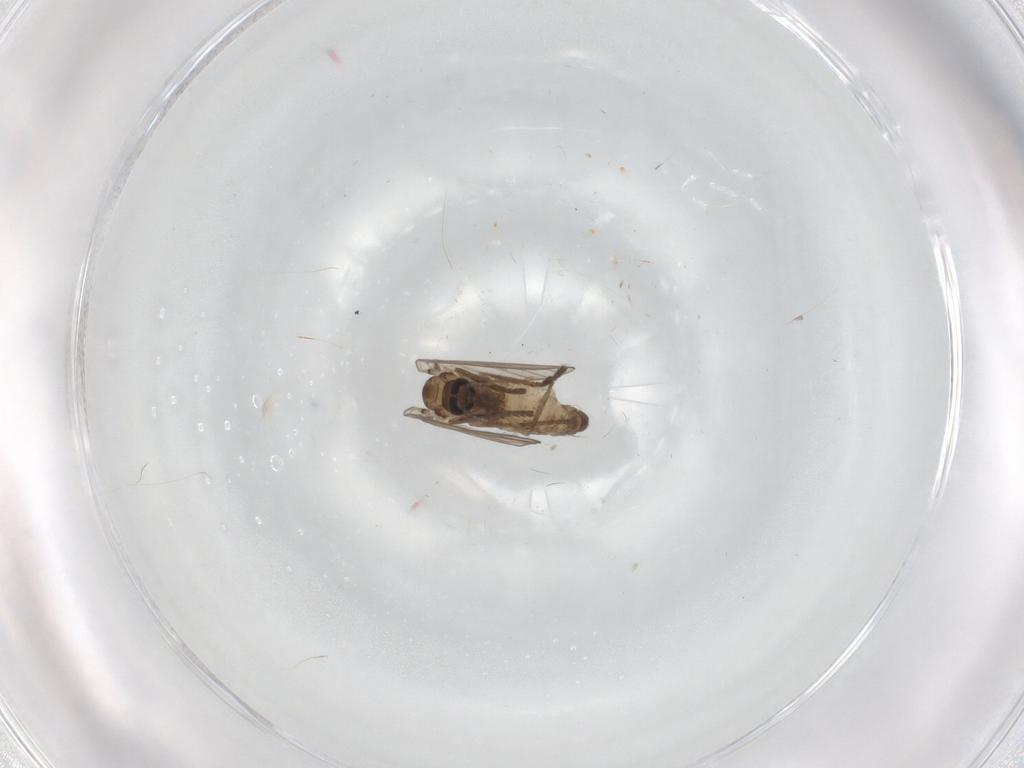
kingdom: Animalia
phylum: Arthropoda
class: Insecta
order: Diptera
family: Psychodidae
